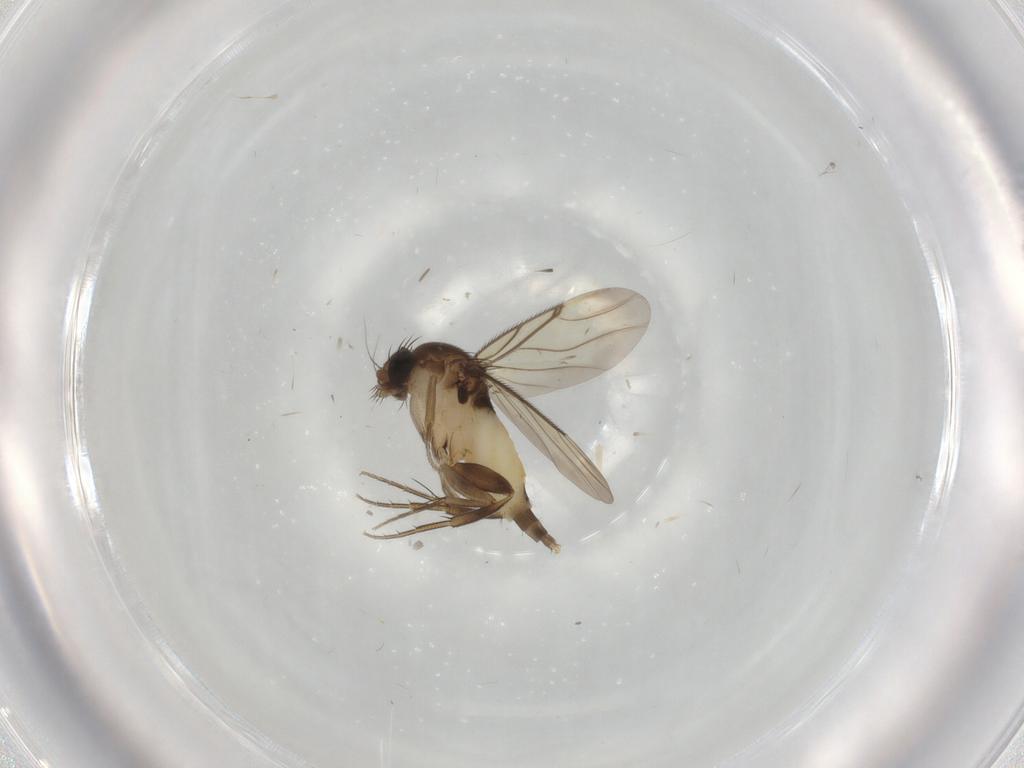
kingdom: Animalia
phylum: Arthropoda
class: Insecta
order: Diptera
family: Phoridae
